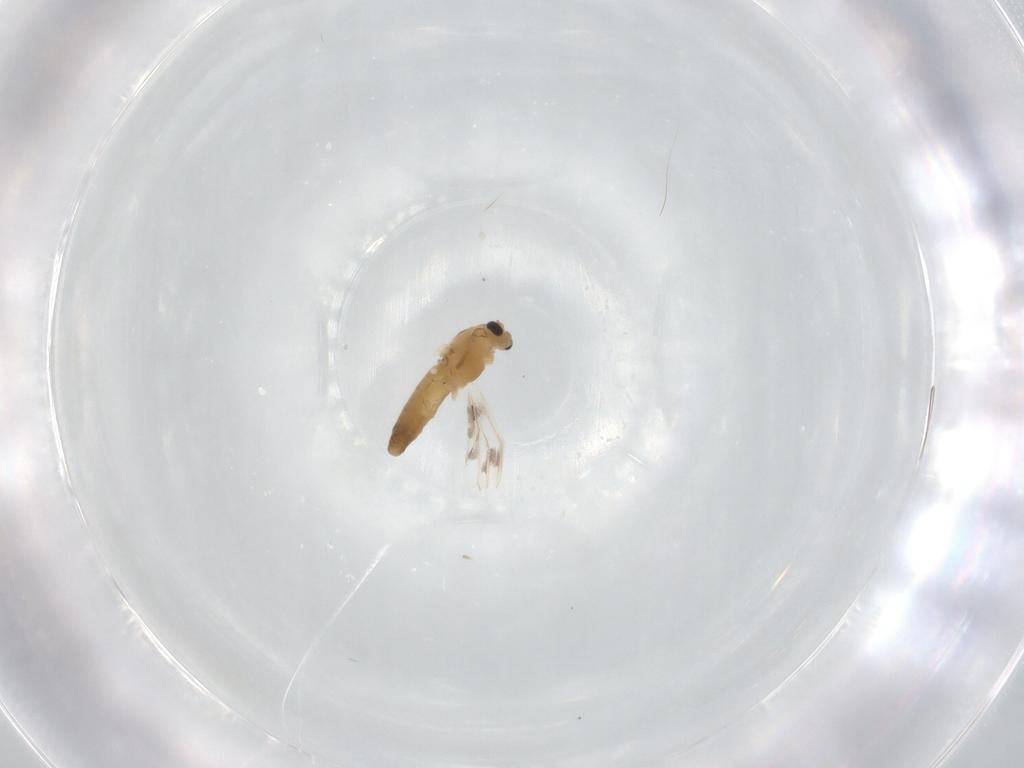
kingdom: Animalia
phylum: Arthropoda
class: Insecta
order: Diptera
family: Chironomidae
